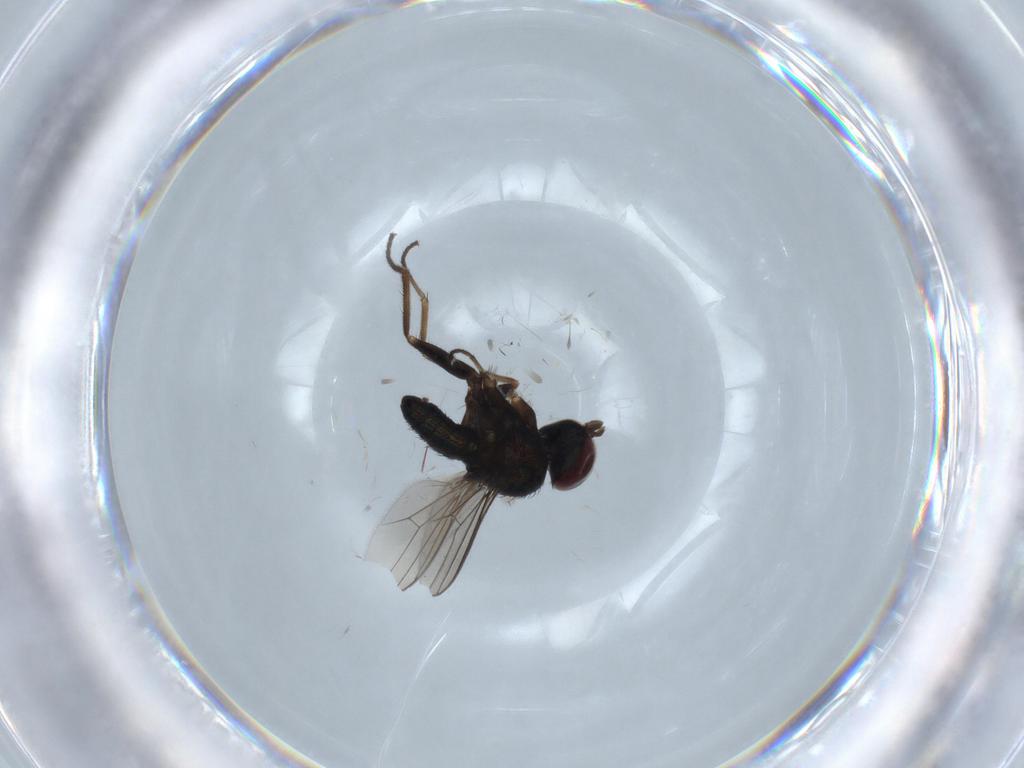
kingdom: Animalia
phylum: Arthropoda
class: Insecta
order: Diptera
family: Dolichopodidae
